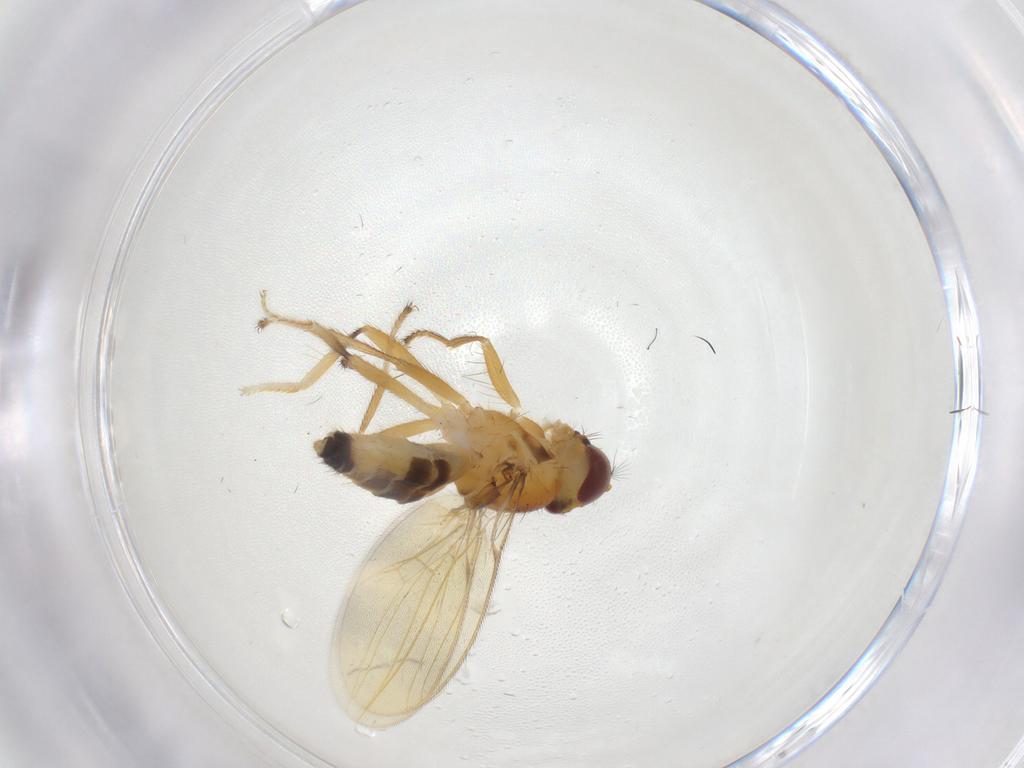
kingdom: Animalia
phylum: Arthropoda
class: Insecta
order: Diptera
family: Periscelididae
